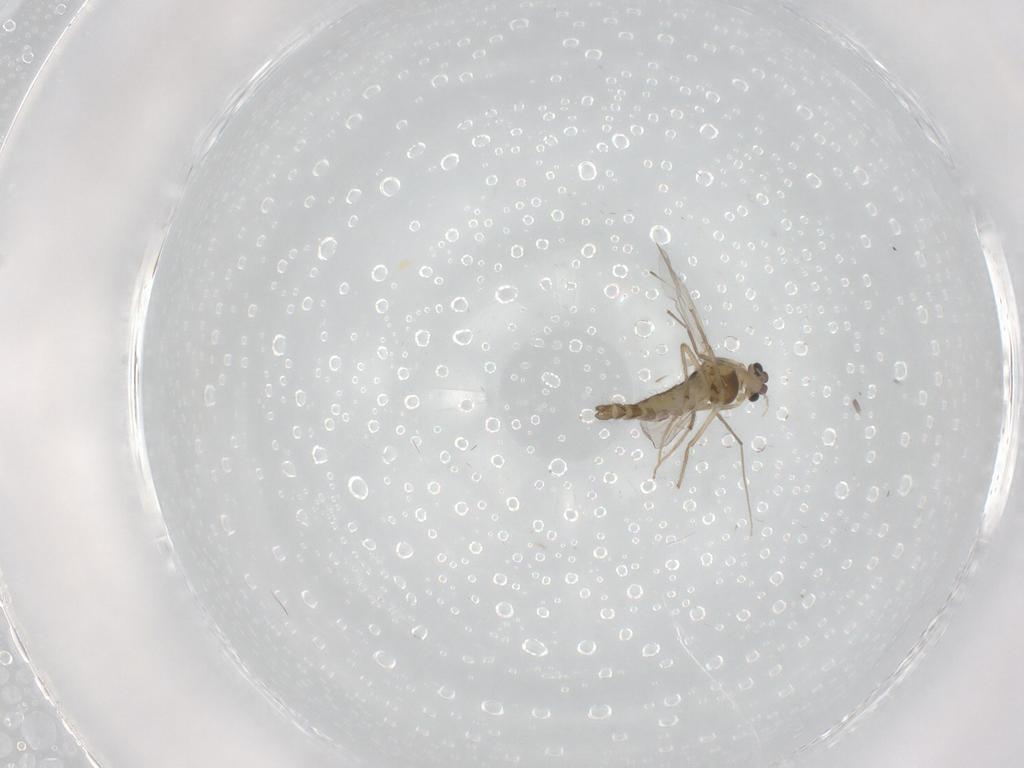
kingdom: Animalia
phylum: Arthropoda
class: Insecta
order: Diptera
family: Chironomidae
